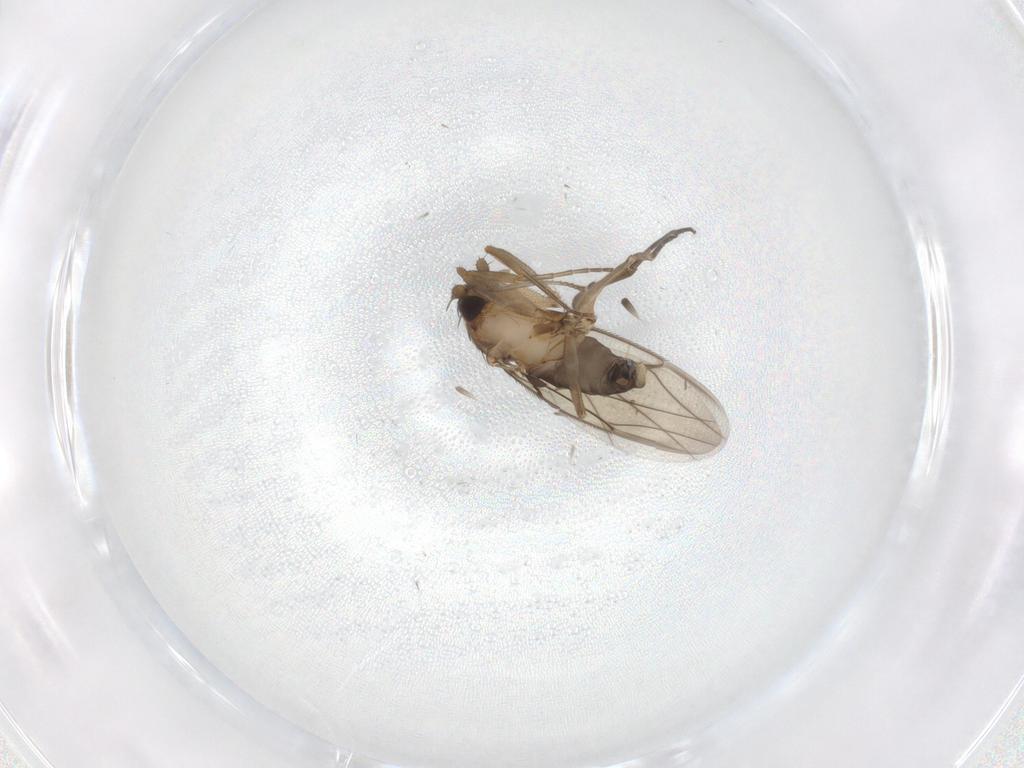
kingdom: Animalia
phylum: Arthropoda
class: Insecta
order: Diptera
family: Phoridae
